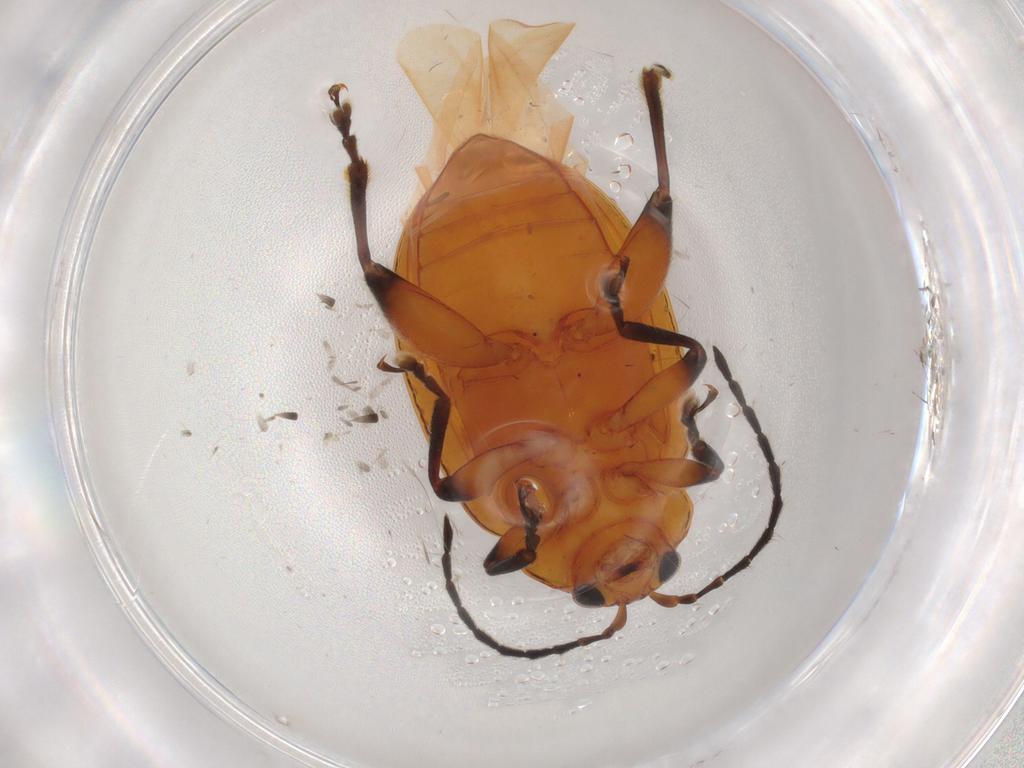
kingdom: Animalia
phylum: Arthropoda
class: Insecta
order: Coleoptera
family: Chrysomelidae
